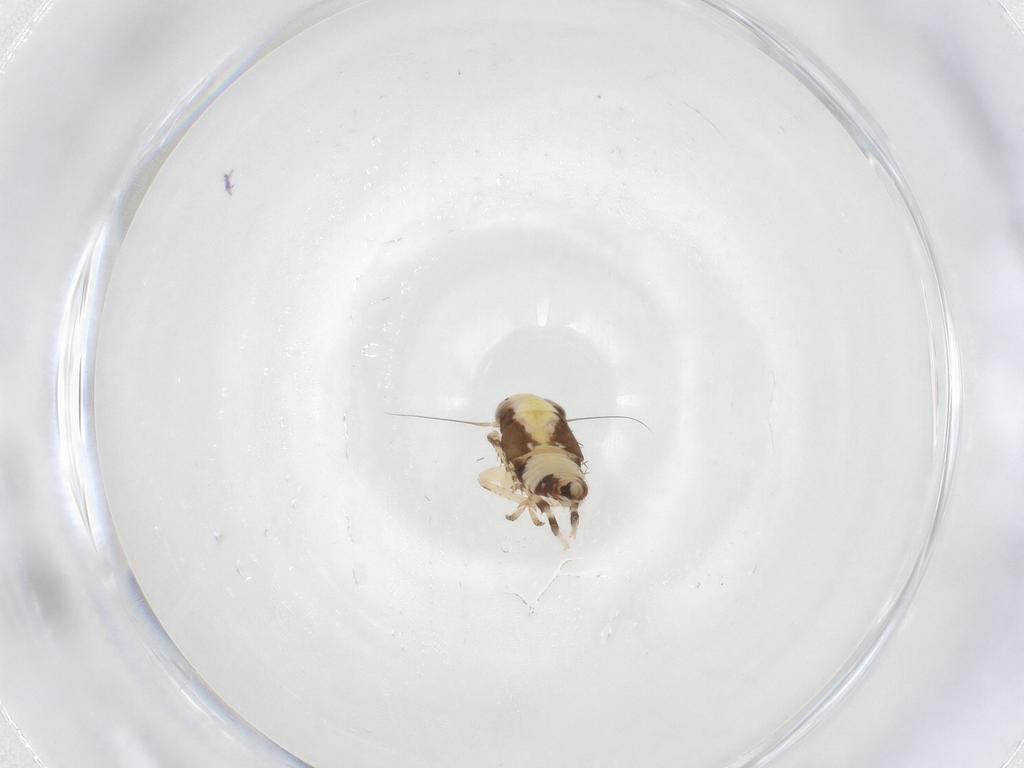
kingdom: Animalia
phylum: Arthropoda
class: Insecta
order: Hemiptera
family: Cicadellidae
